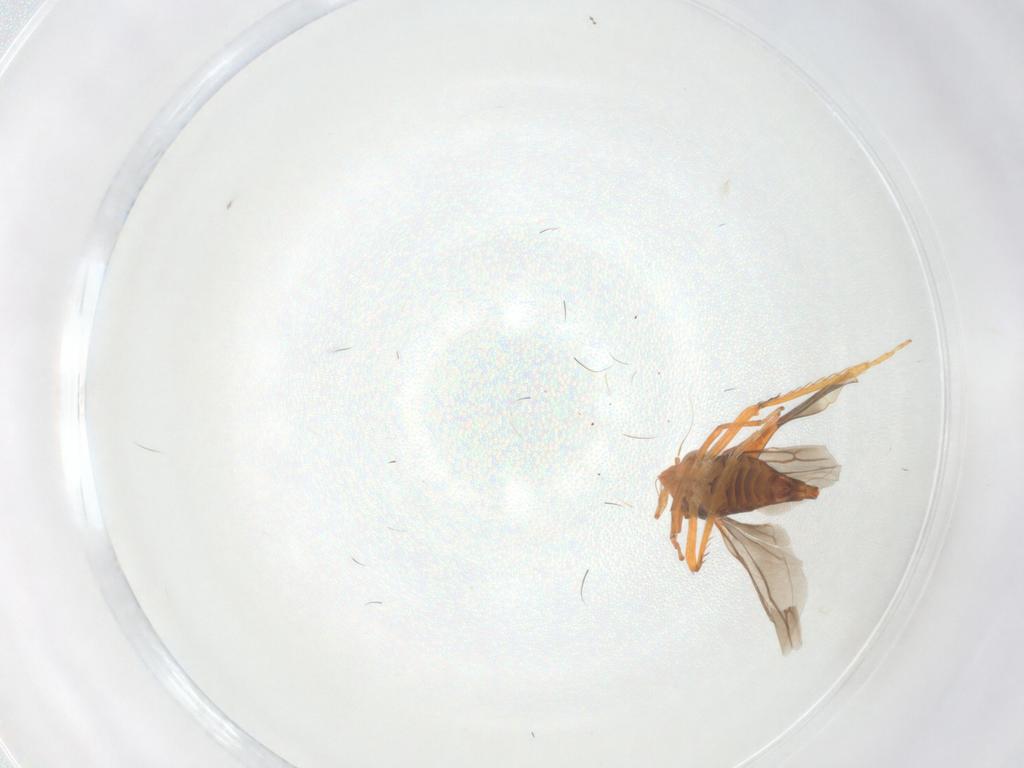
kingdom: Animalia
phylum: Arthropoda
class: Insecta
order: Hemiptera
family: Cicadellidae
